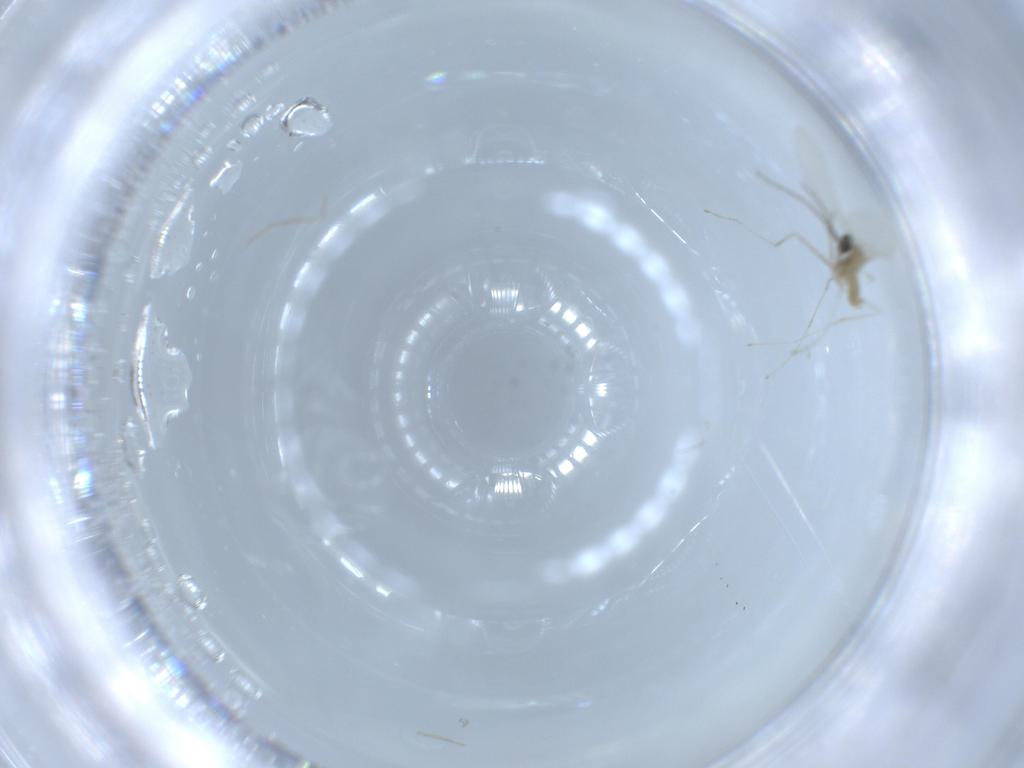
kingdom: Animalia
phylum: Arthropoda
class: Insecta
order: Diptera
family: Cecidomyiidae
